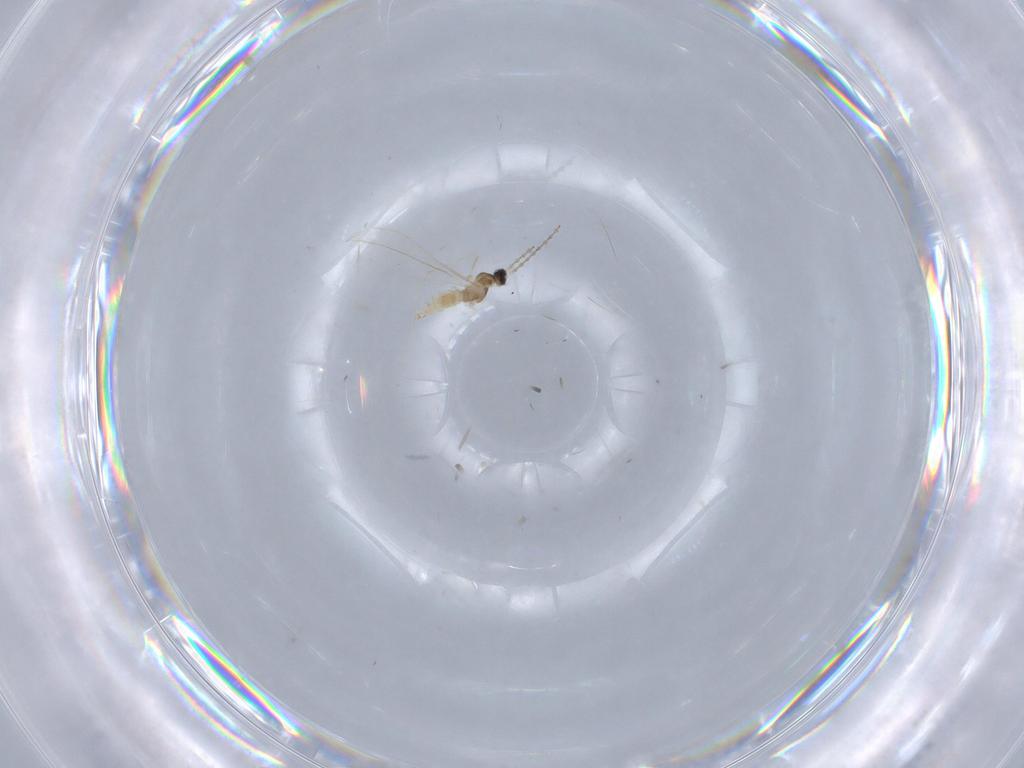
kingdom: Animalia
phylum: Arthropoda
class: Insecta
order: Diptera
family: Cecidomyiidae
